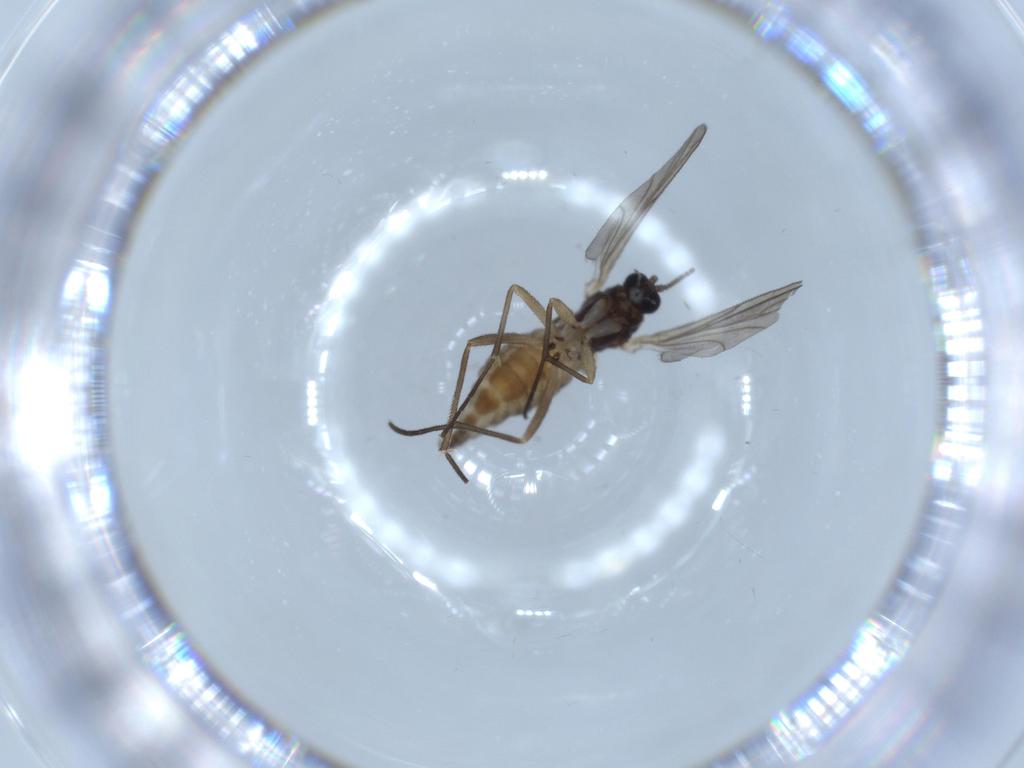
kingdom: Animalia
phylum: Arthropoda
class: Insecta
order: Diptera
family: Sciaridae
